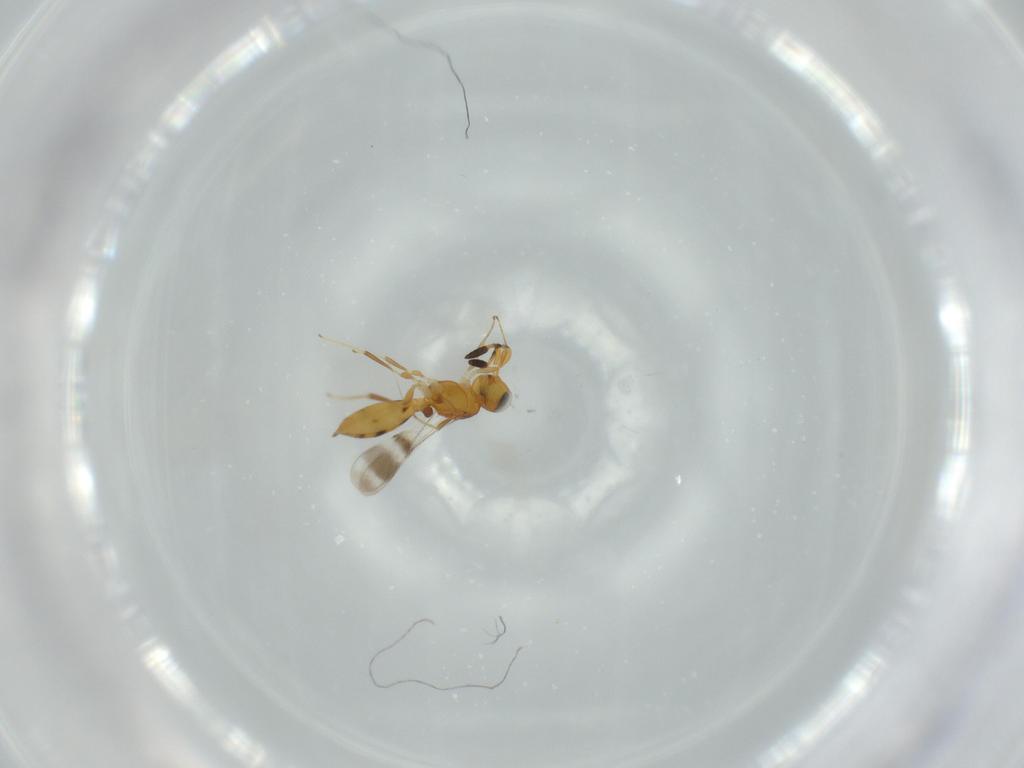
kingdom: Animalia
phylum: Arthropoda
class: Insecta
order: Hymenoptera
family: Scelionidae
